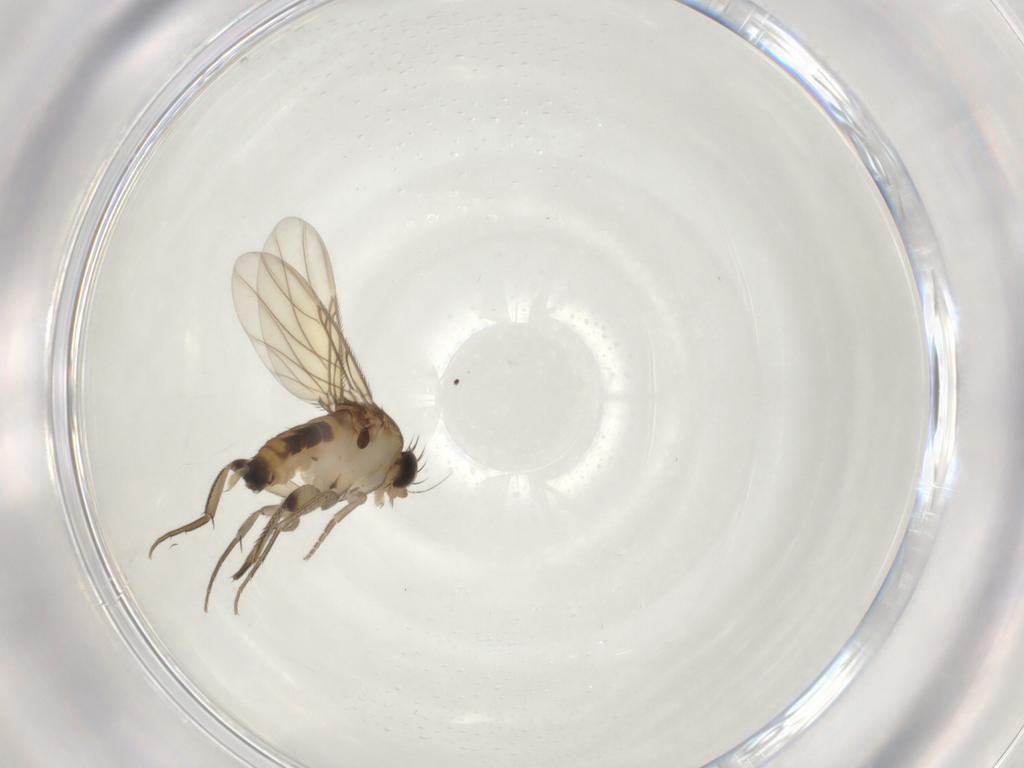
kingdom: Animalia
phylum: Arthropoda
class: Insecta
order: Diptera
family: Phoridae
